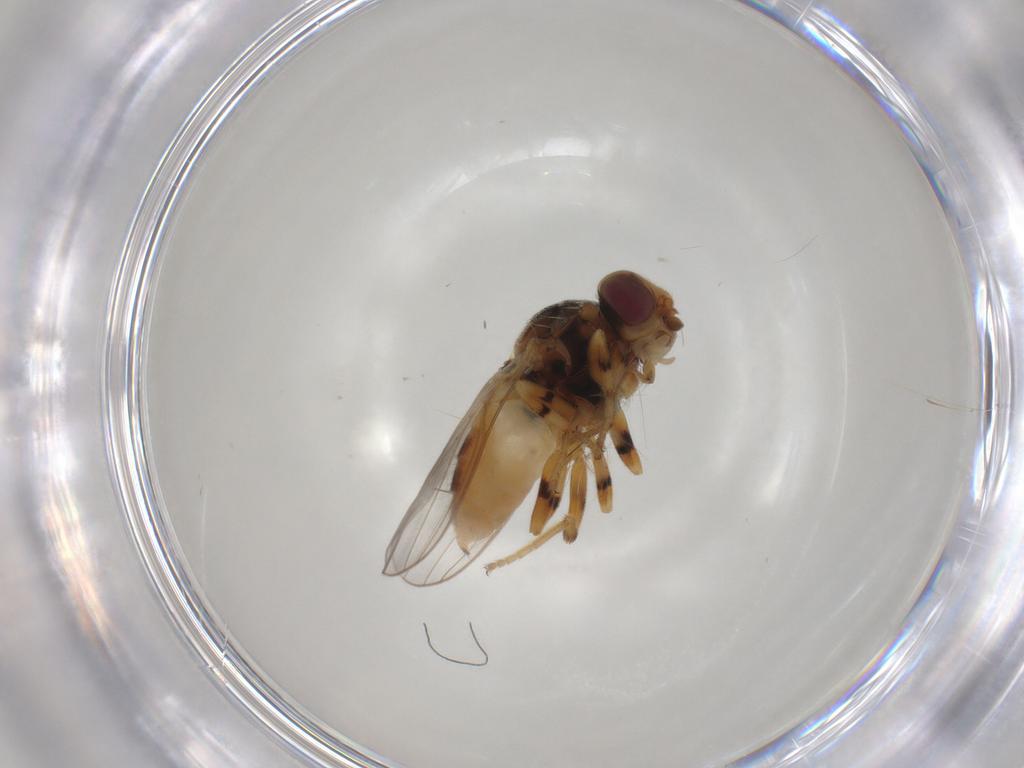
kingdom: Animalia
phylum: Arthropoda
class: Insecta
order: Diptera
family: Chloropidae
